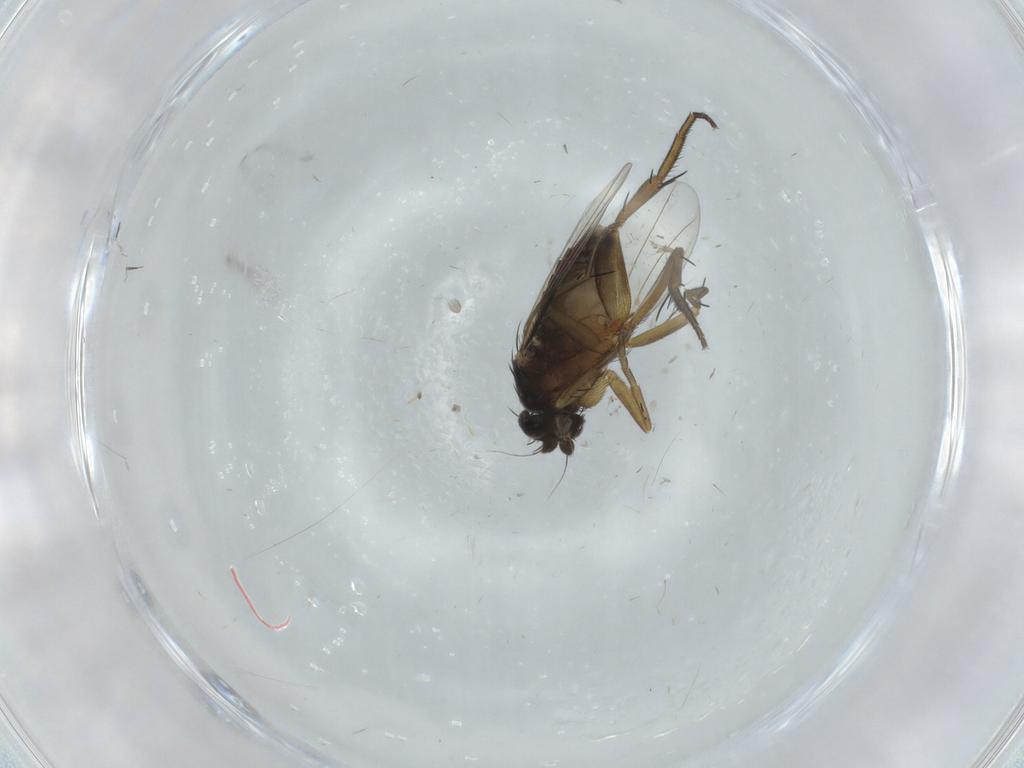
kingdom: Animalia
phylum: Arthropoda
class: Insecta
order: Diptera
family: Phoridae
